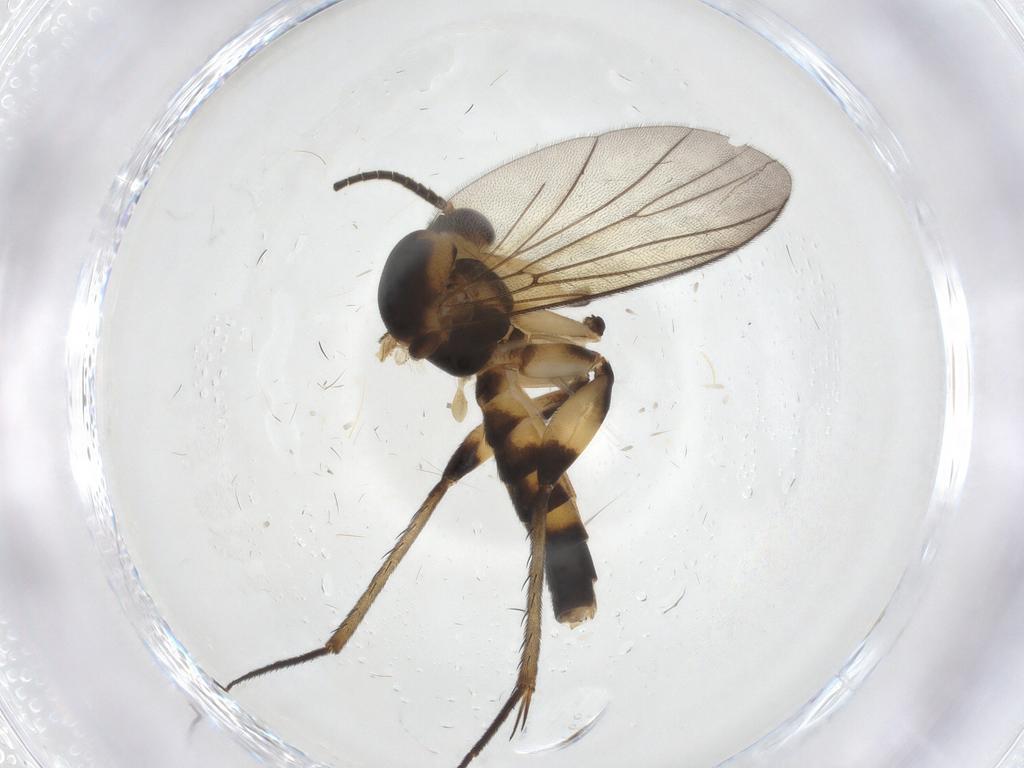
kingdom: Animalia
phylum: Arthropoda
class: Insecta
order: Diptera
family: Mycetophilidae
